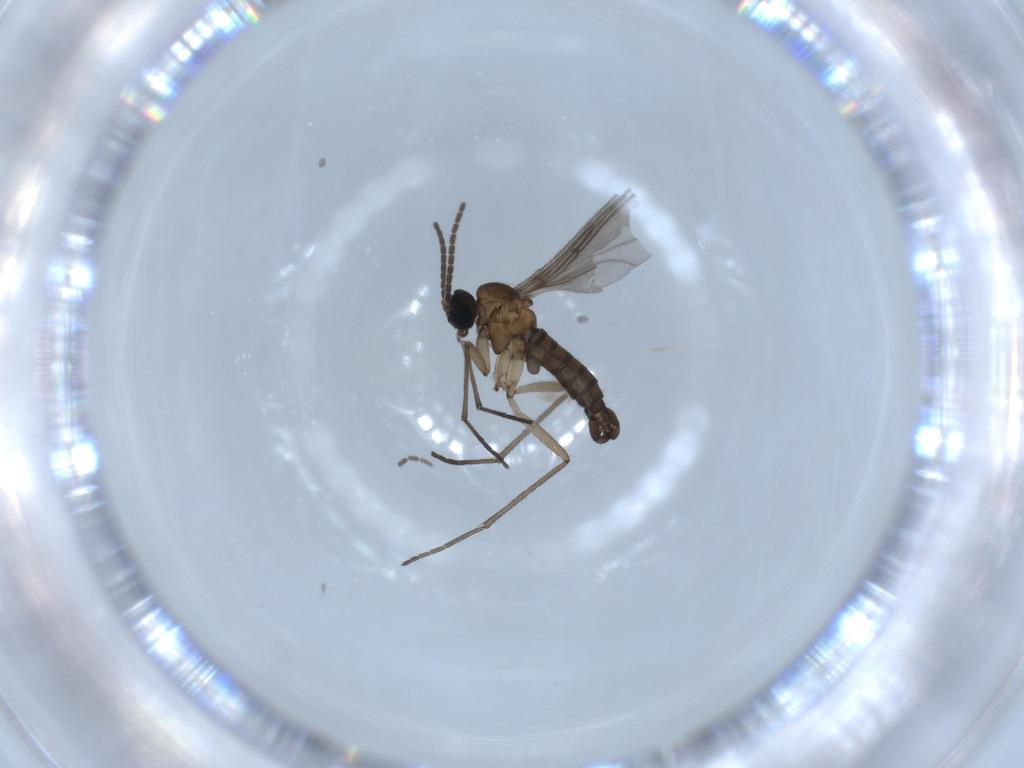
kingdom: Animalia
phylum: Arthropoda
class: Insecta
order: Diptera
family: Sciaridae
